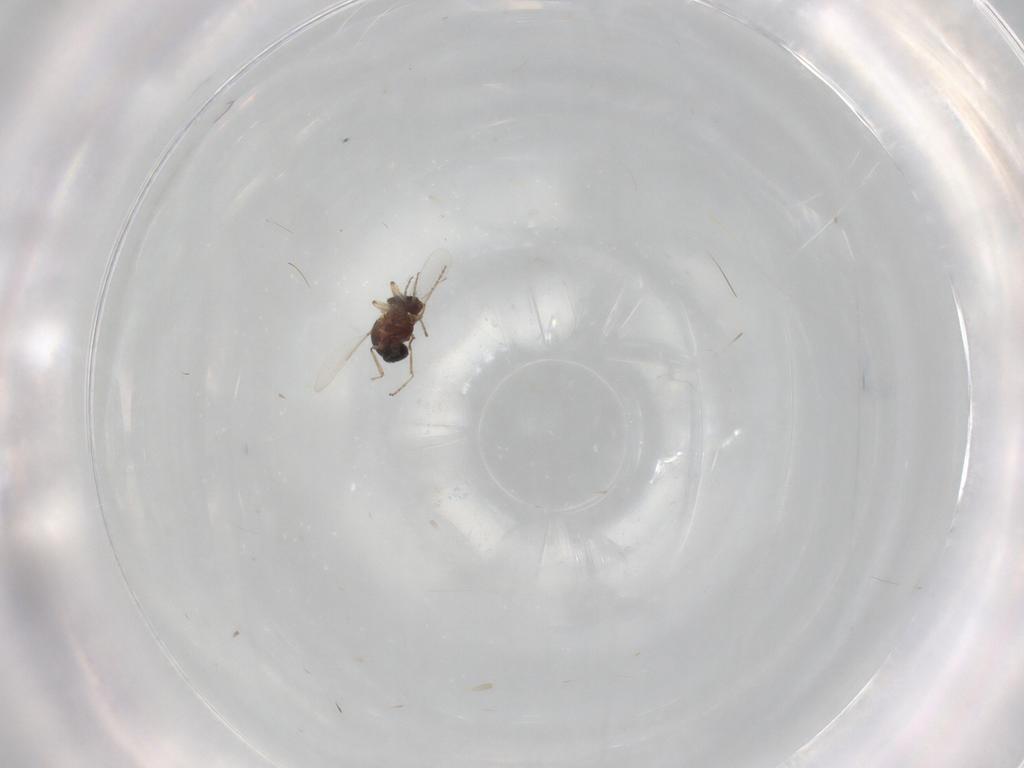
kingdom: Animalia
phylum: Arthropoda
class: Insecta
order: Diptera
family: Ceratopogonidae
